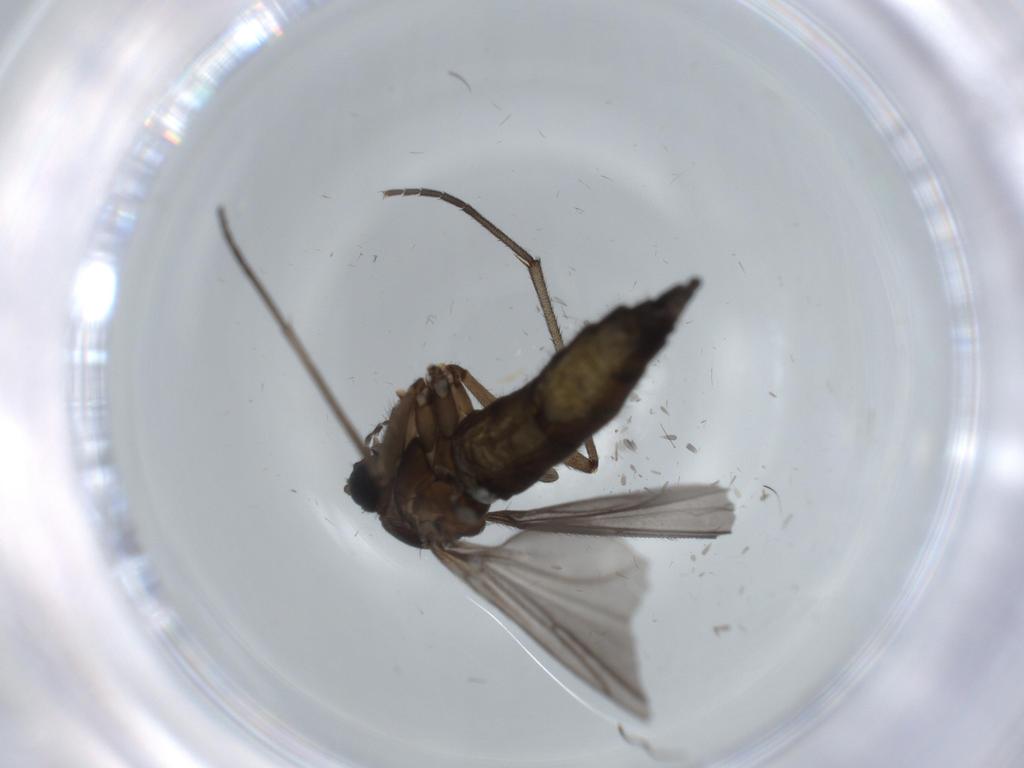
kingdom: Animalia
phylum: Arthropoda
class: Insecta
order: Diptera
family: Sciaridae
